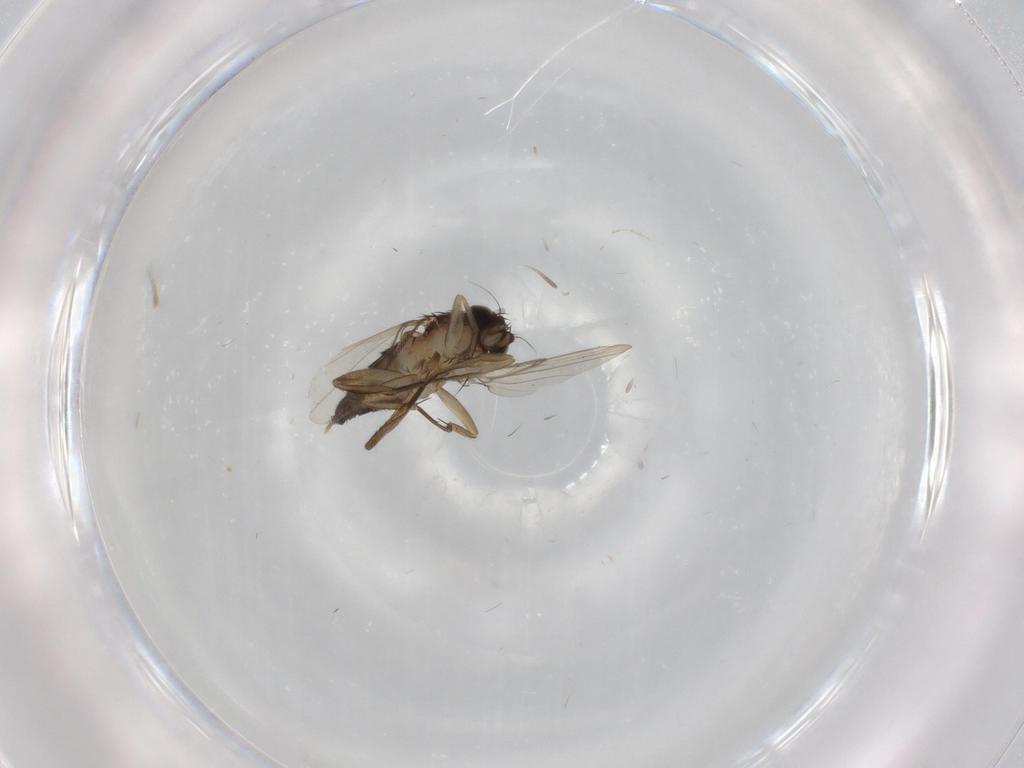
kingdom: Animalia
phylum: Arthropoda
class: Insecta
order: Diptera
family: Phoridae
